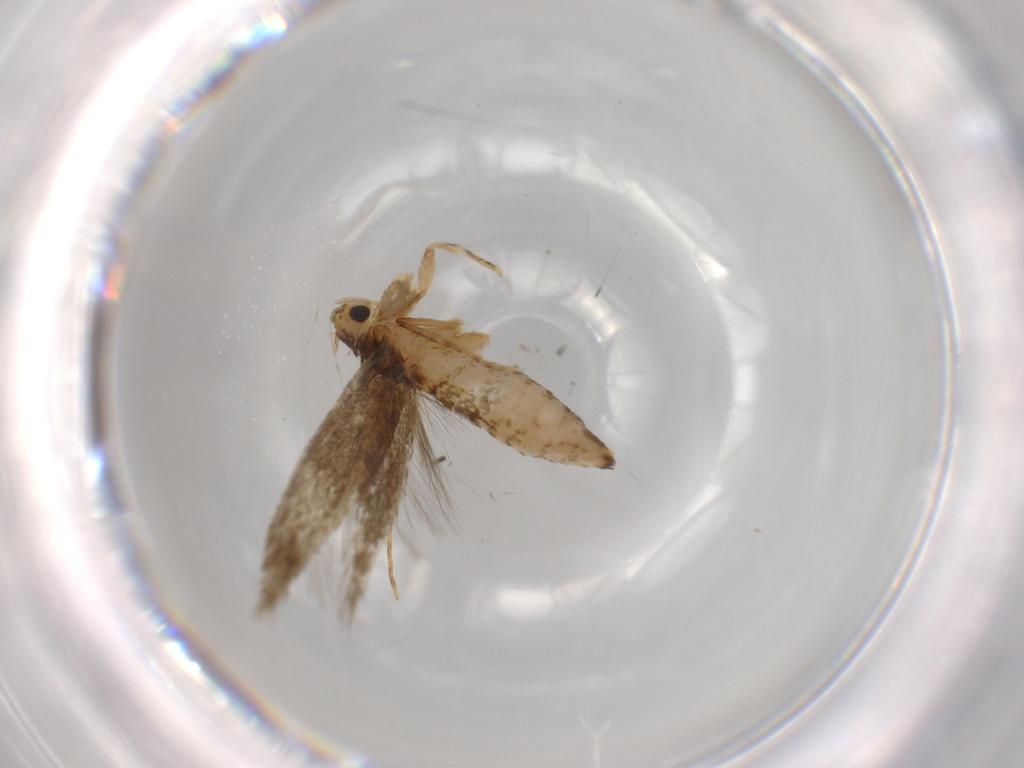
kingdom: Animalia
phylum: Arthropoda
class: Insecta
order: Lepidoptera
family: Tineidae
